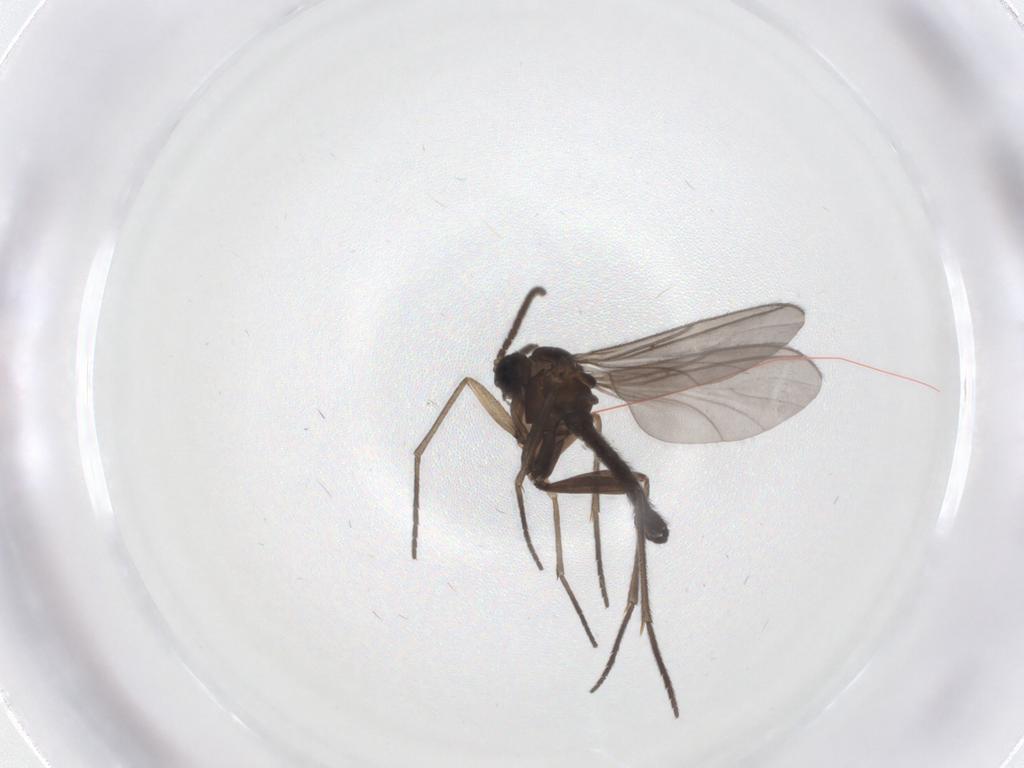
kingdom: Animalia
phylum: Arthropoda
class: Insecta
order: Diptera
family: Sciaridae
